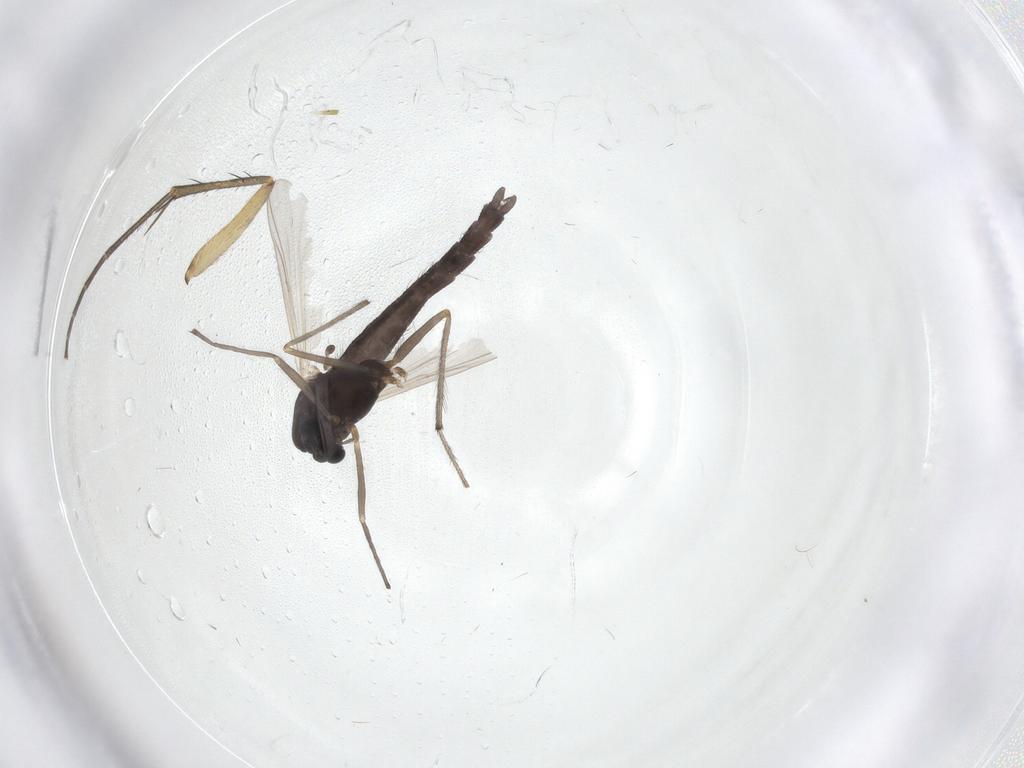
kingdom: Animalia
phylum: Arthropoda
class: Insecta
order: Diptera
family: Chironomidae
